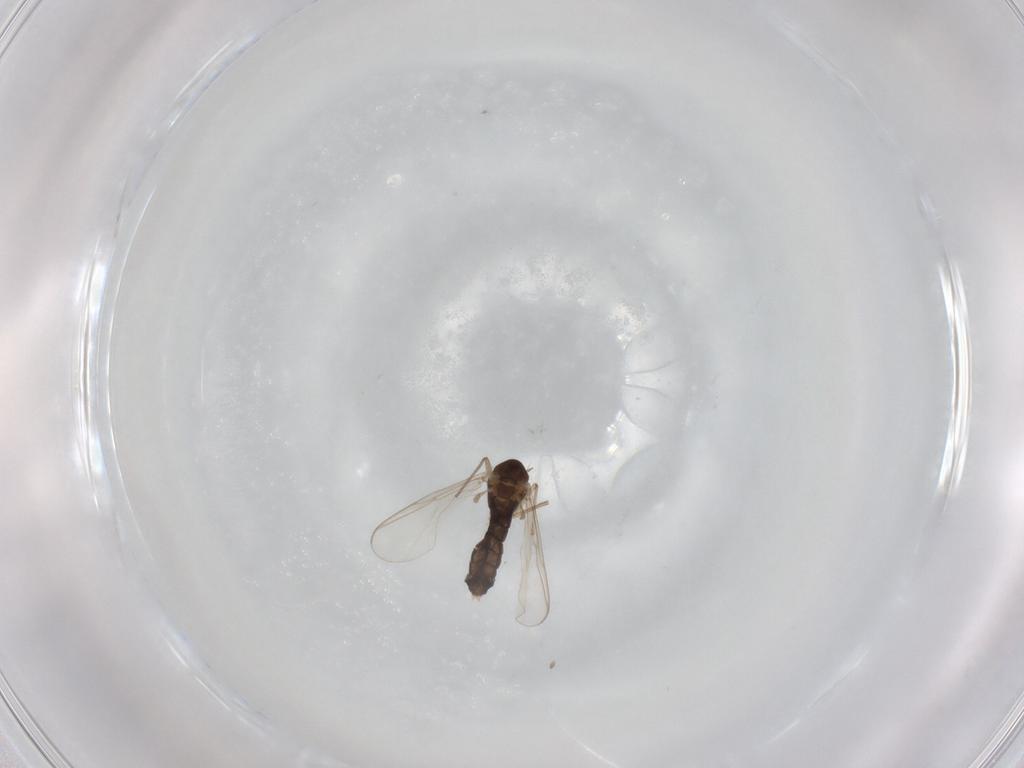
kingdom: Animalia
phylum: Arthropoda
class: Insecta
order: Diptera
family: Chironomidae
